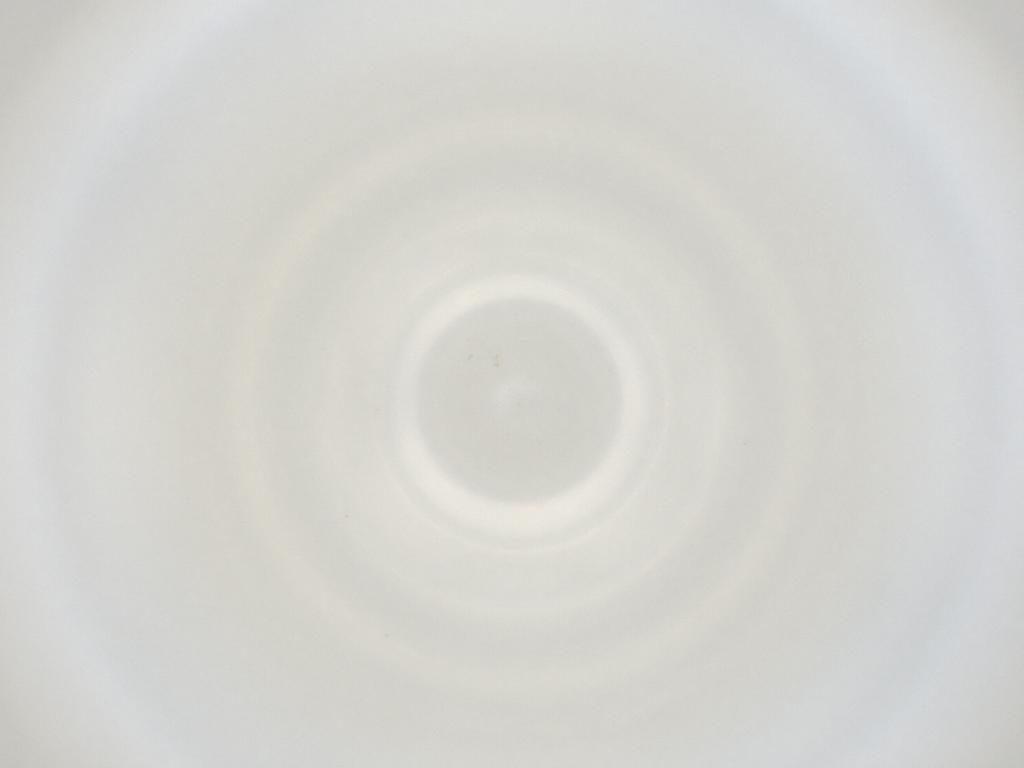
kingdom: Animalia
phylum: Arthropoda
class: Insecta
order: Diptera
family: Cecidomyiidae
